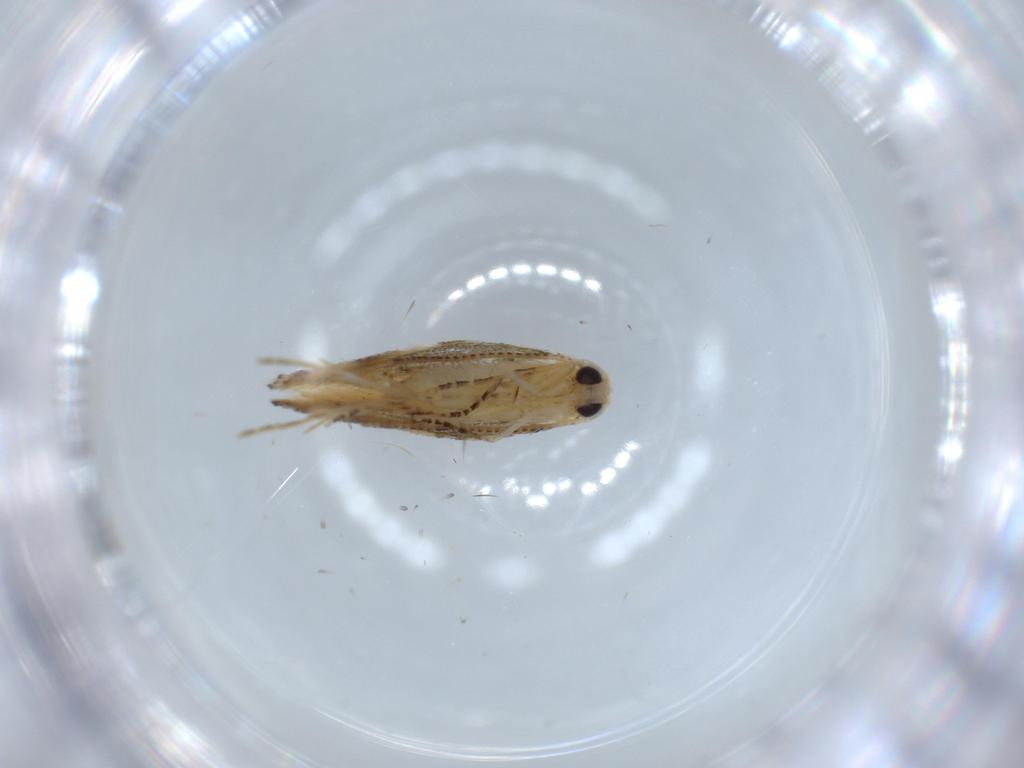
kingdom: Animalia
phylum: Arthropoda
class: Insecta
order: Lepidoptera
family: Bucculatricidae
